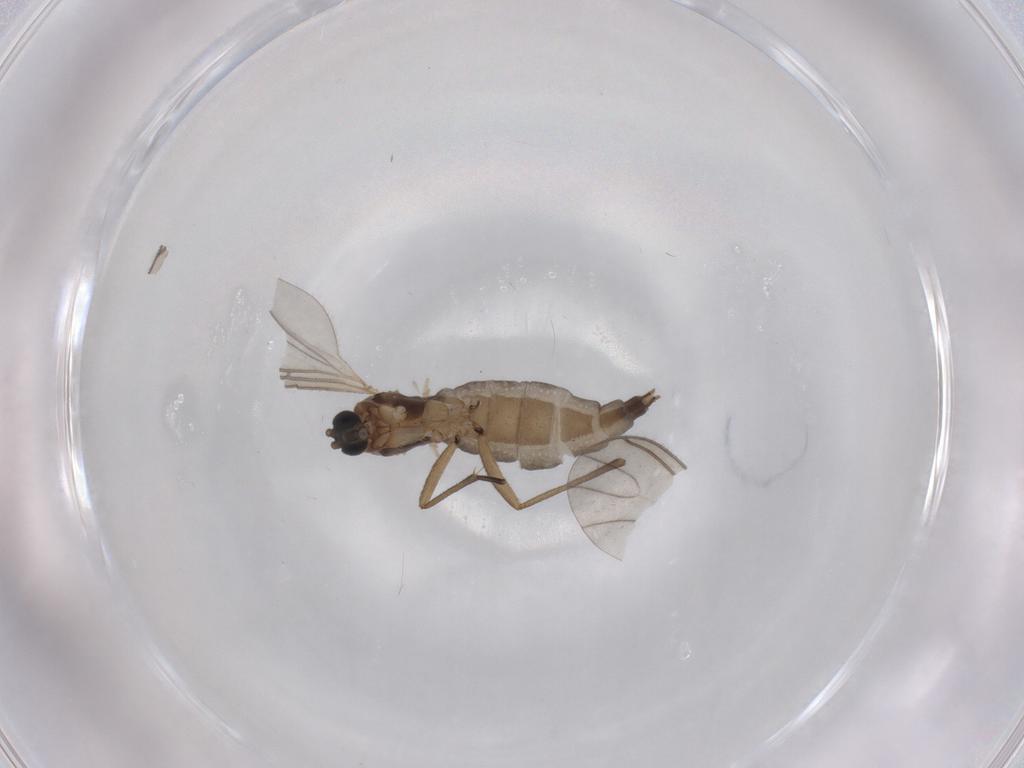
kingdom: Animalia
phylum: Arthropoda
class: Insecta
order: Diptera
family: Sciaridae
